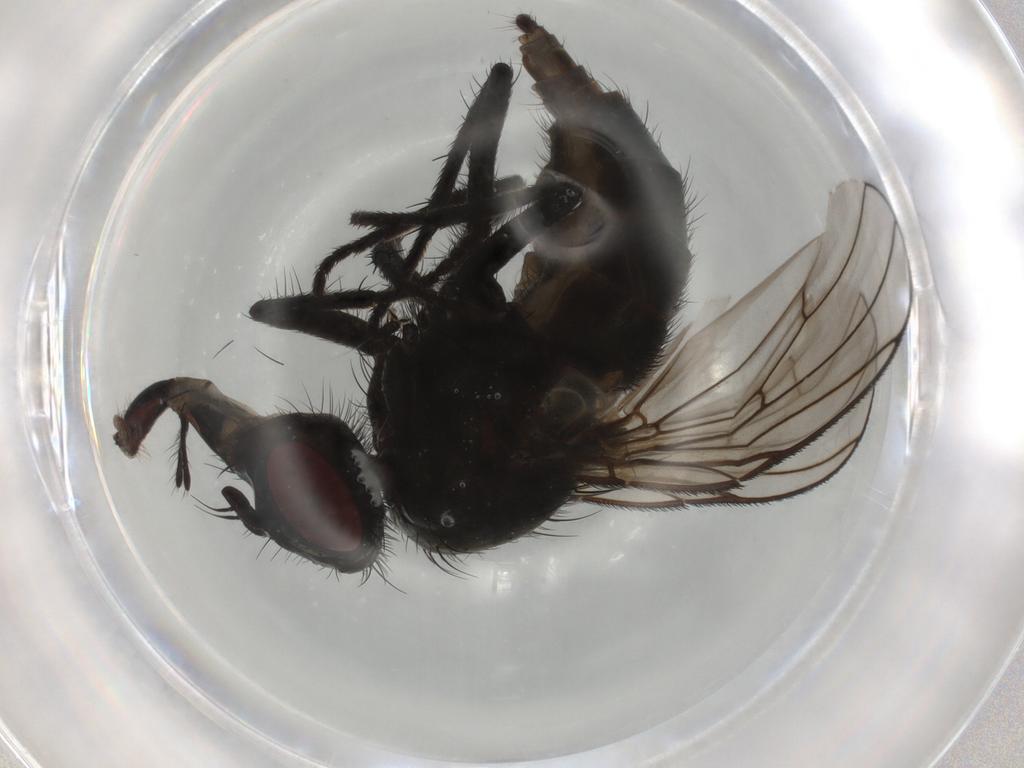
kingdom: Animalia
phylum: Arthropoda
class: Insecta
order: Diptera
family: Muscidae
